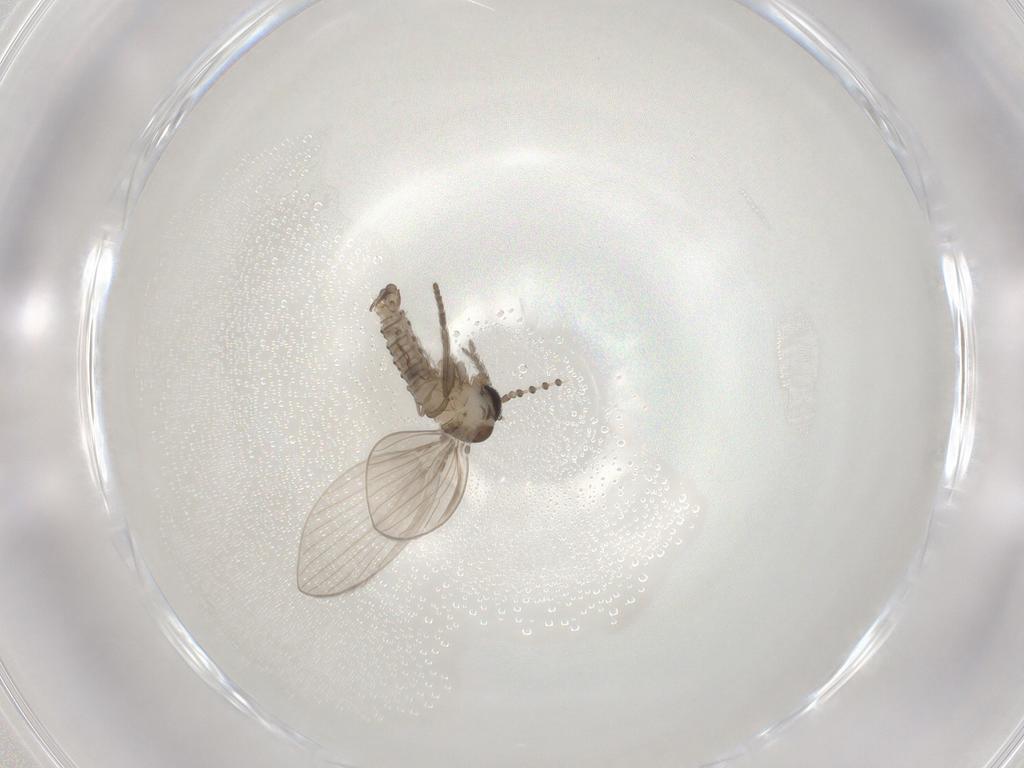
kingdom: Animalia
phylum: Arthropoda
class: Insecta
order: Diptera
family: Psychodidae
